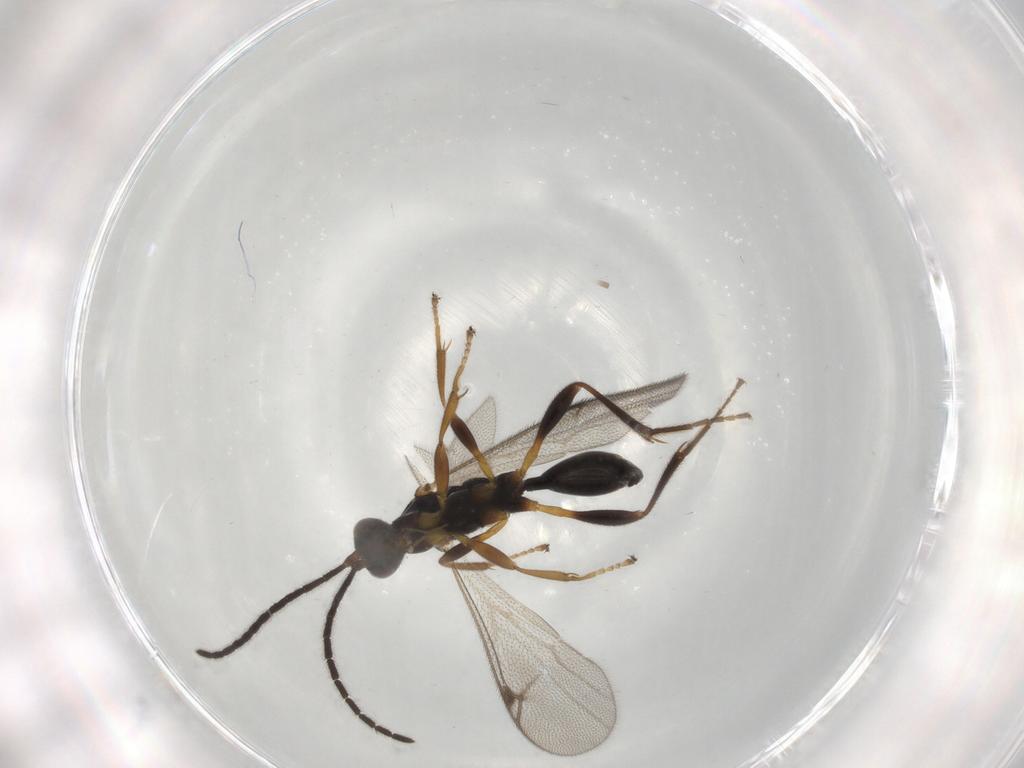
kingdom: Animalia
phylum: Arthropoda
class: Insecta
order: Hymenoptera
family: Proctotrupidae
